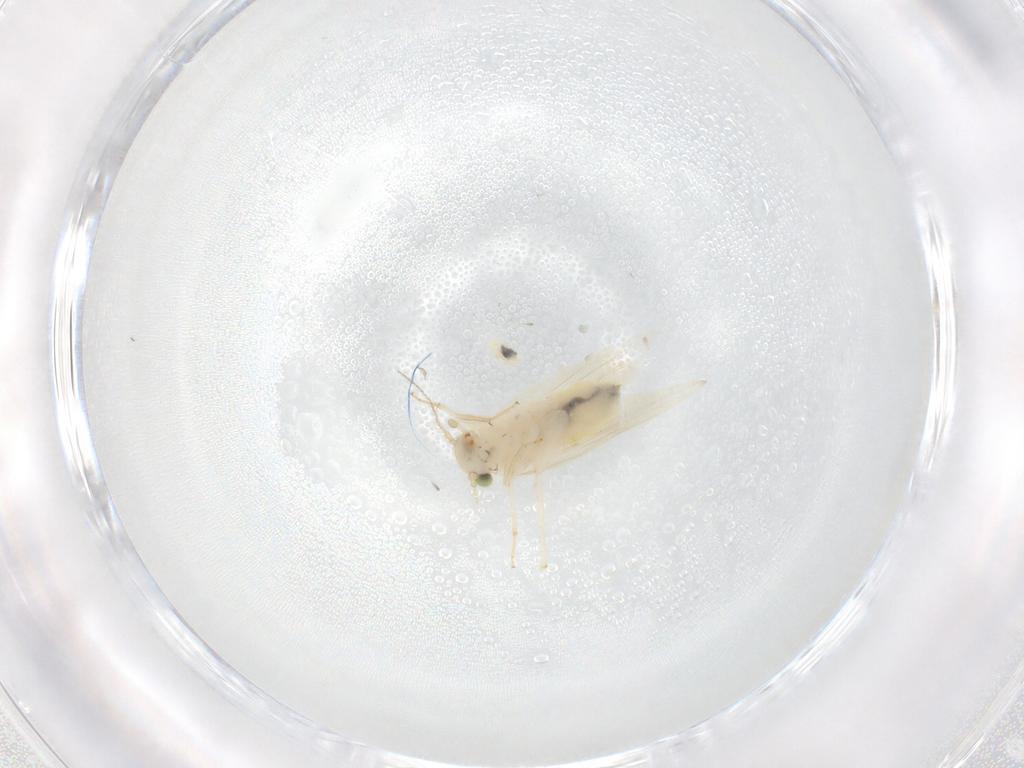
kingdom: Animalia
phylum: Arthropoda
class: Insecta
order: Psocodea
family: Lepidopsocidae
